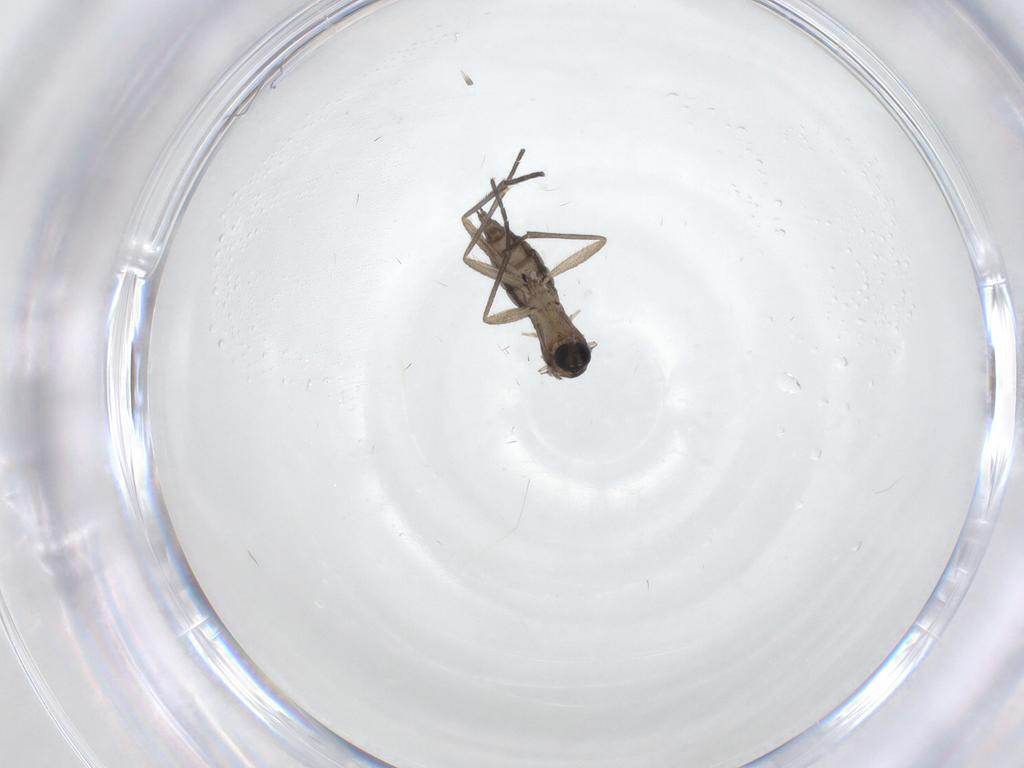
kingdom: Animalia
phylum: Arthropoda
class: Insecta
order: Diptera
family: Sciaridae
